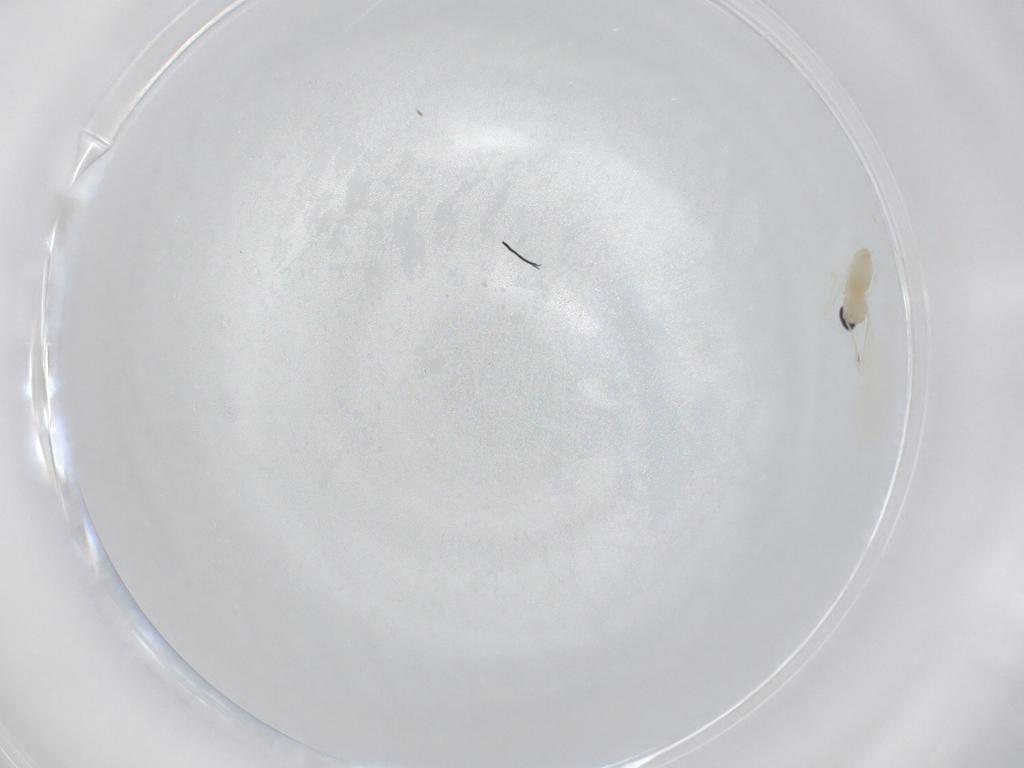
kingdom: Animalia
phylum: Arthropoda
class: Insecta
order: Diptera
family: Cecidomyiidae
